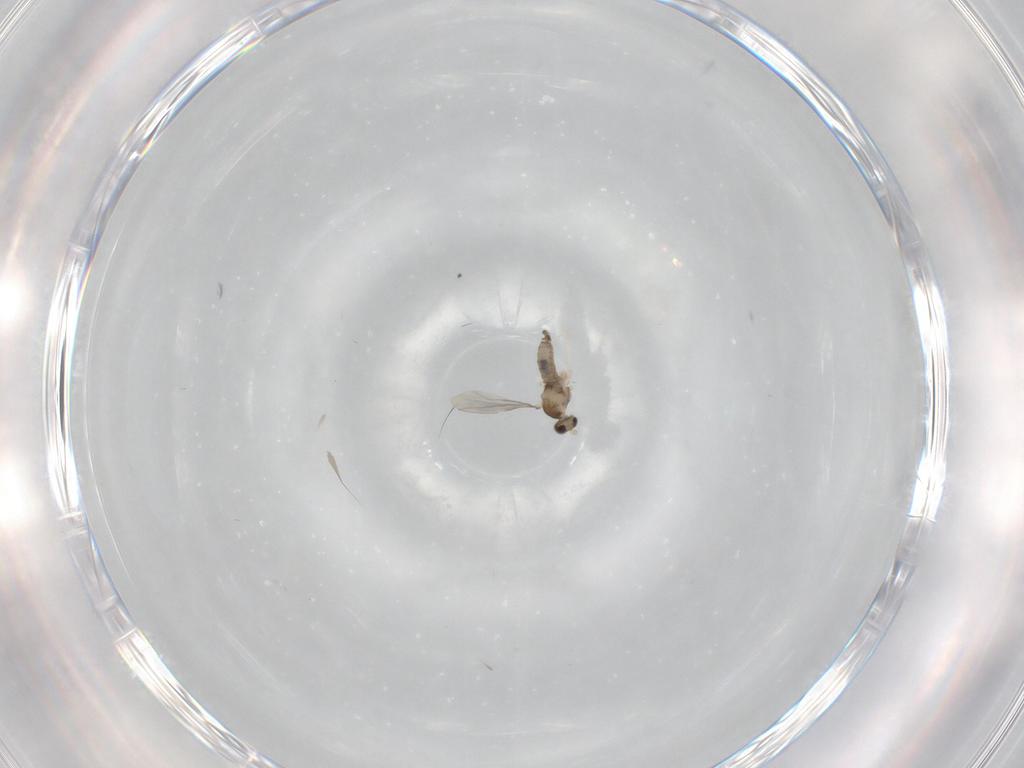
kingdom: Animalia
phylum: Arthropoda
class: Insecta
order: Diptera
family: Cecidomyiidae
